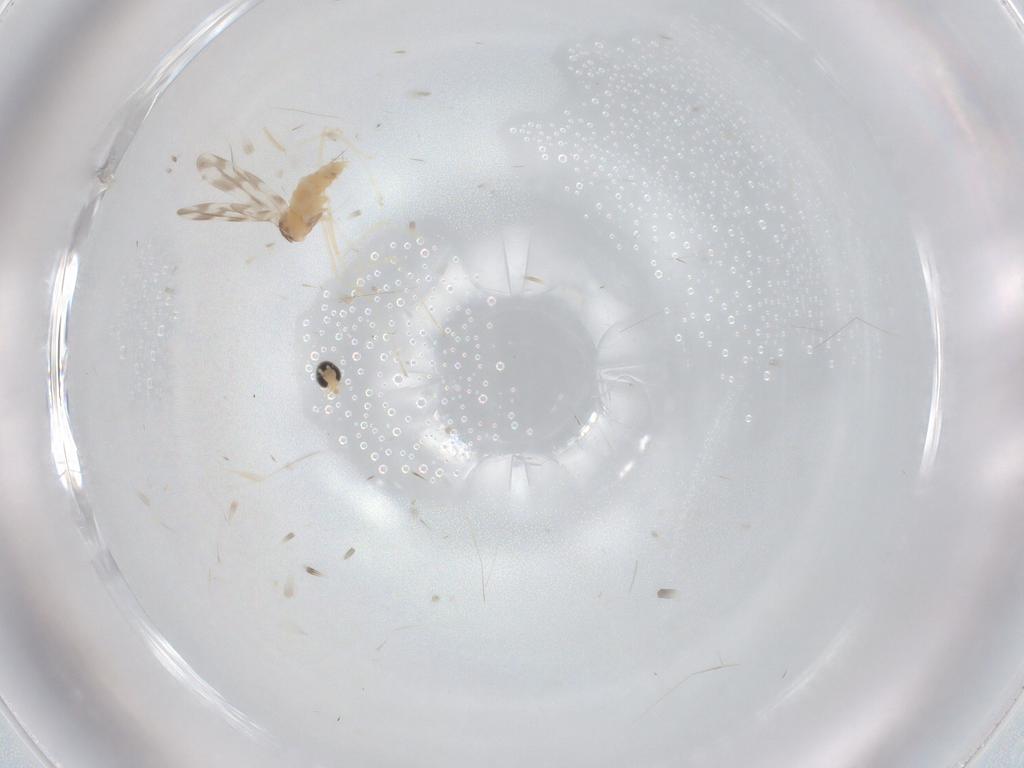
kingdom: Animalia
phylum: Arthropoda
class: Insecta
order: Diptera
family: Cecidomyiidae
